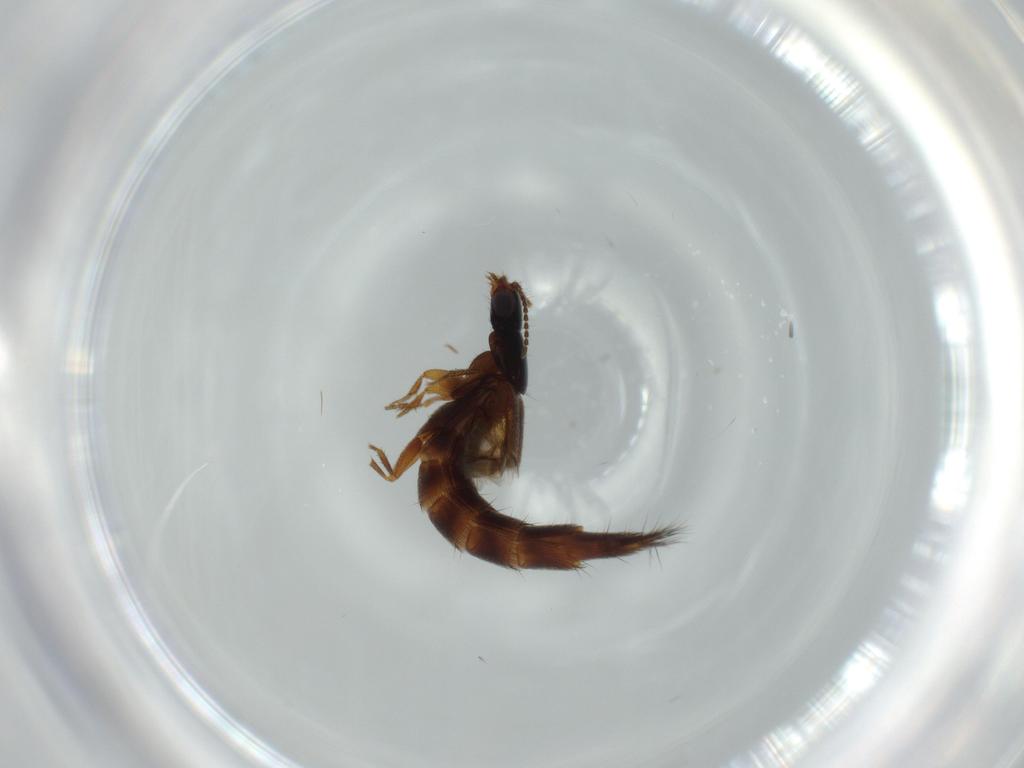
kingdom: Animalia
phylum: Arthropoda
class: Insecta
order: Coleoptera
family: Staphylinidae
